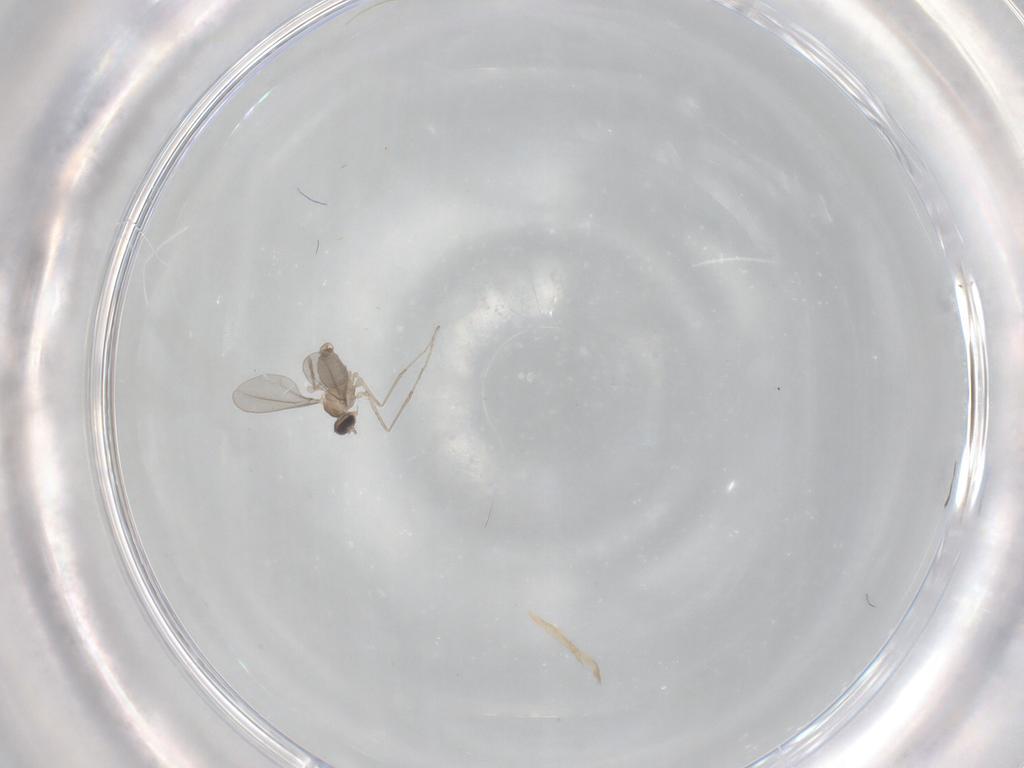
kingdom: Animalia
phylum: Arthropoda
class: Insecta
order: Diptera
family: Cecidomyiidae
